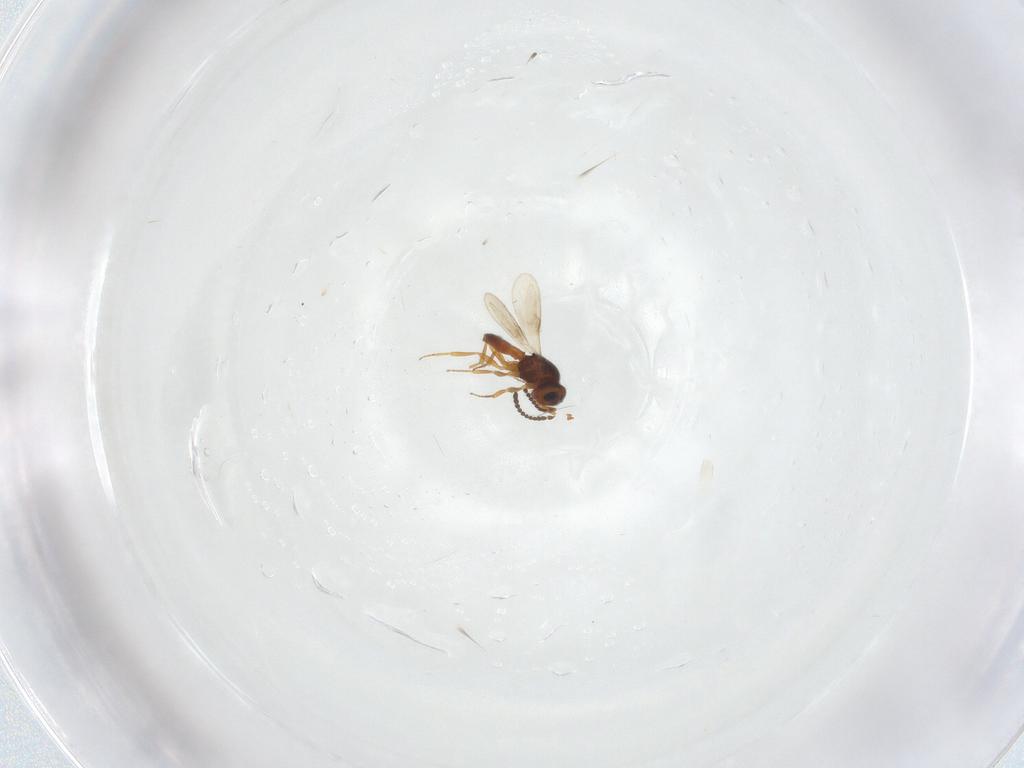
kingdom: Animalia
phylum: Arthropoda
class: Insecta
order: Hymenoptera
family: Scelionidae
